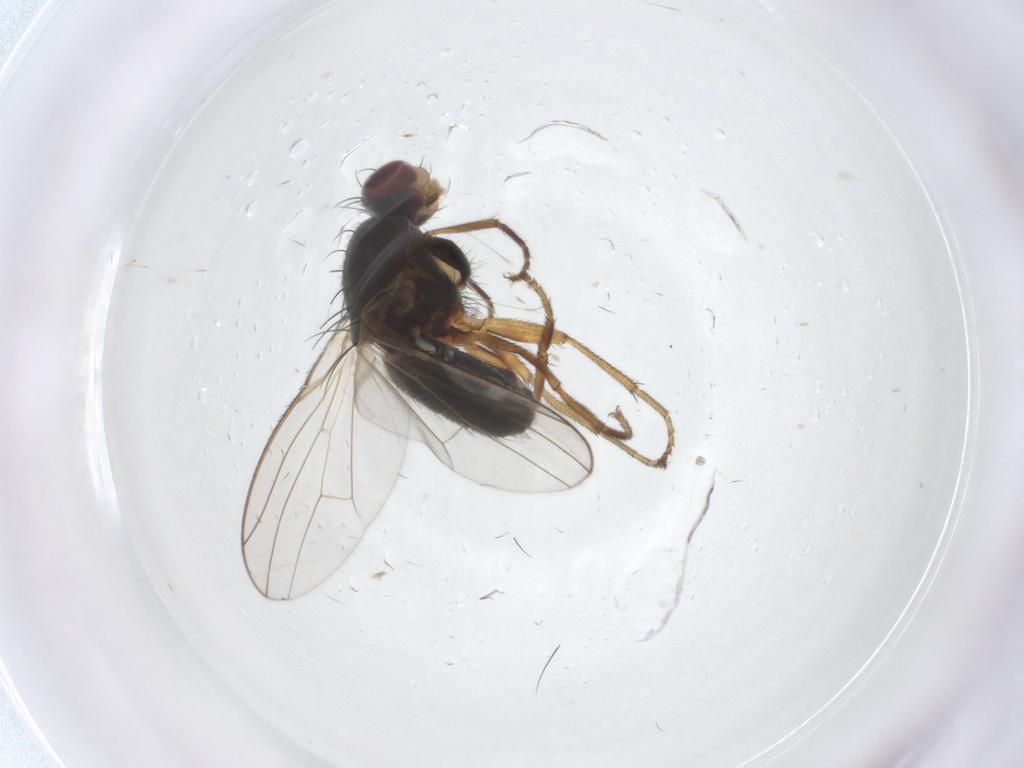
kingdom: Animalia
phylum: Arthropoda
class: Insecta
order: Diptera
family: Heleomyzidae
